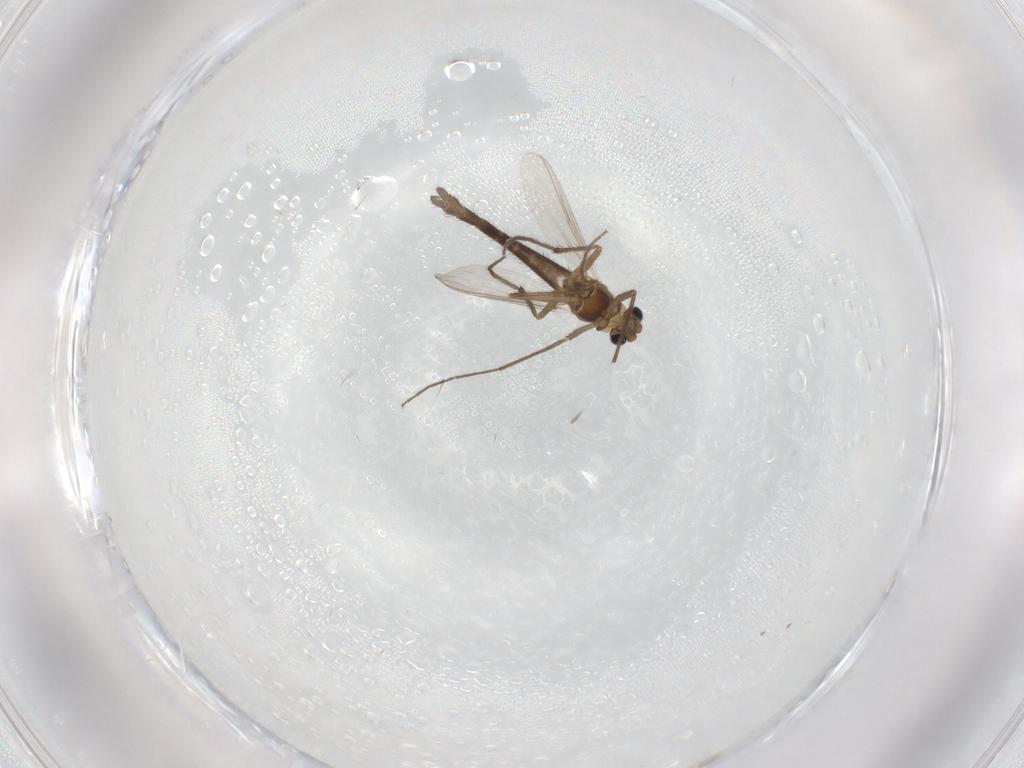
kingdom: Animalia
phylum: Arthropoda
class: Insecta
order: Diptera
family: Chironomidae
